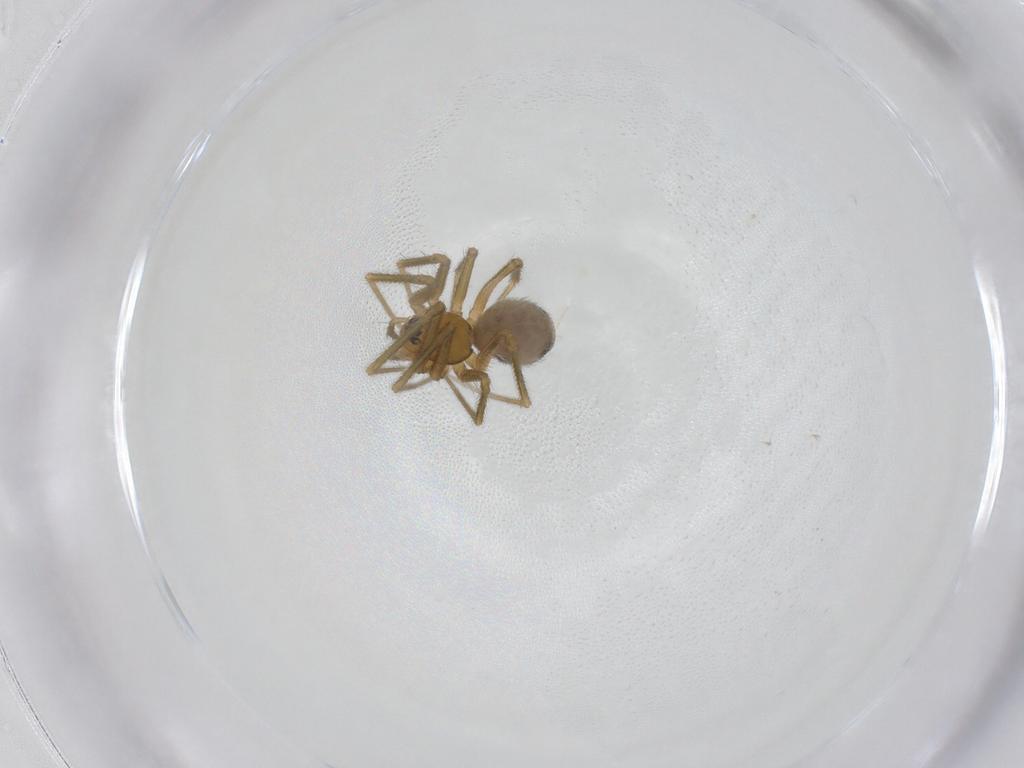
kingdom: Animalia
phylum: Arthropoda
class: Arachnida
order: Araneae
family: Linyphiidae
